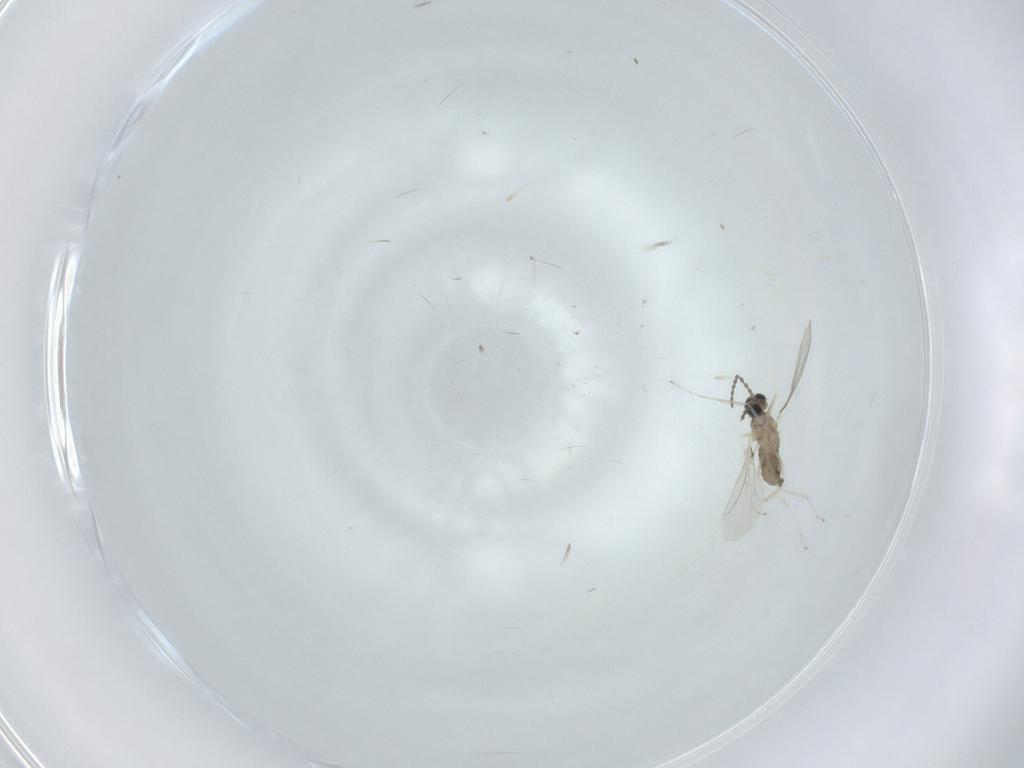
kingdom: Animalia
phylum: Arthropoda
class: Insecta
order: Diptera
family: Cecidomyiidae
